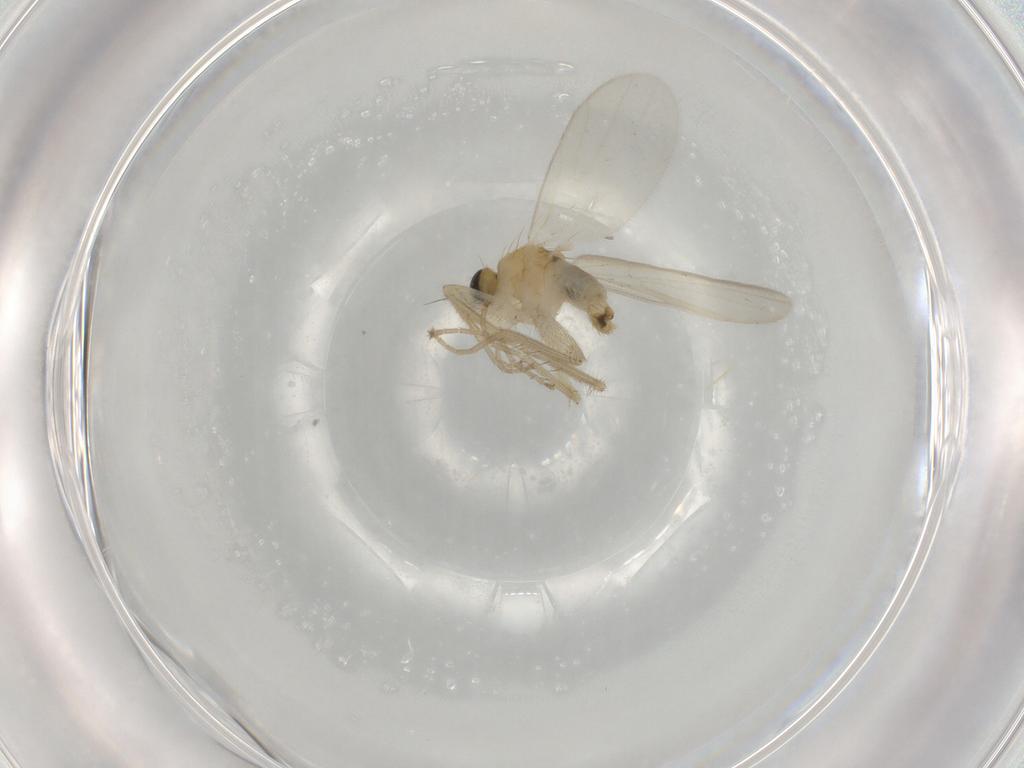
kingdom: Animalia
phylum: Arthropoda
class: Insecta
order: Diptera
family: Hybotidae
